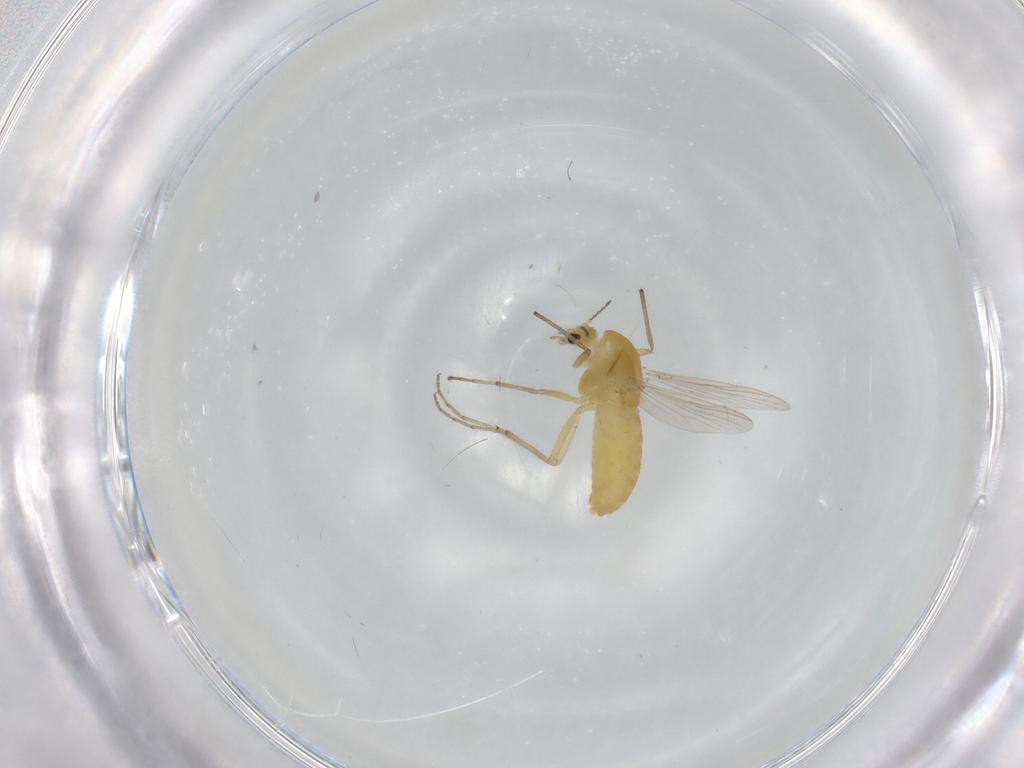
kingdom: Animalia
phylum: Arthropoda
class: Insecta
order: Diptera
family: Chironomidae
